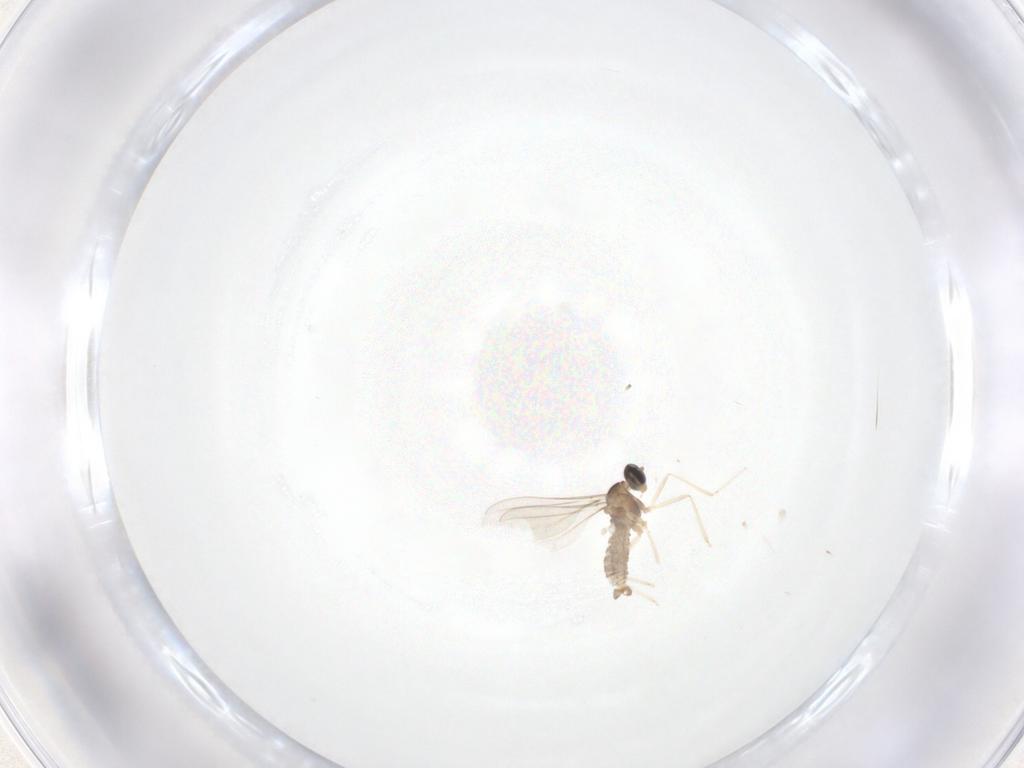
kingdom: Animalia
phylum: Arthropoda
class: Insecta
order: Diptera
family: Cecidomyiidae
